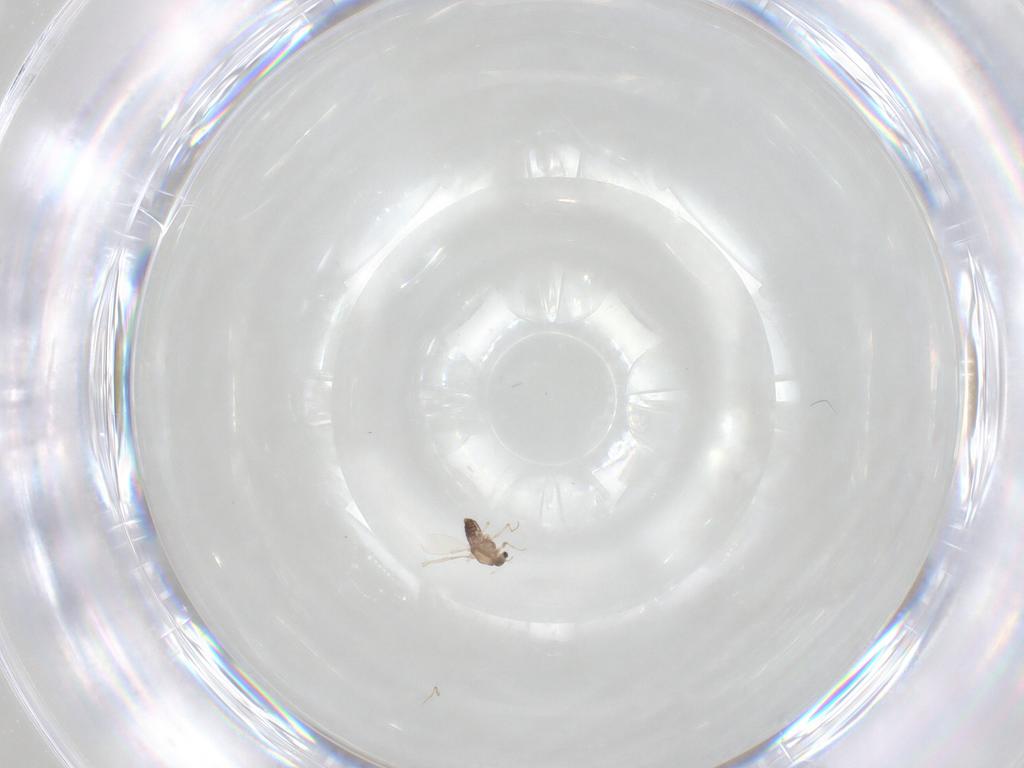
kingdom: Animalia
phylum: Arthropoda
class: Insecta
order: Diptera
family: Chironomidae
